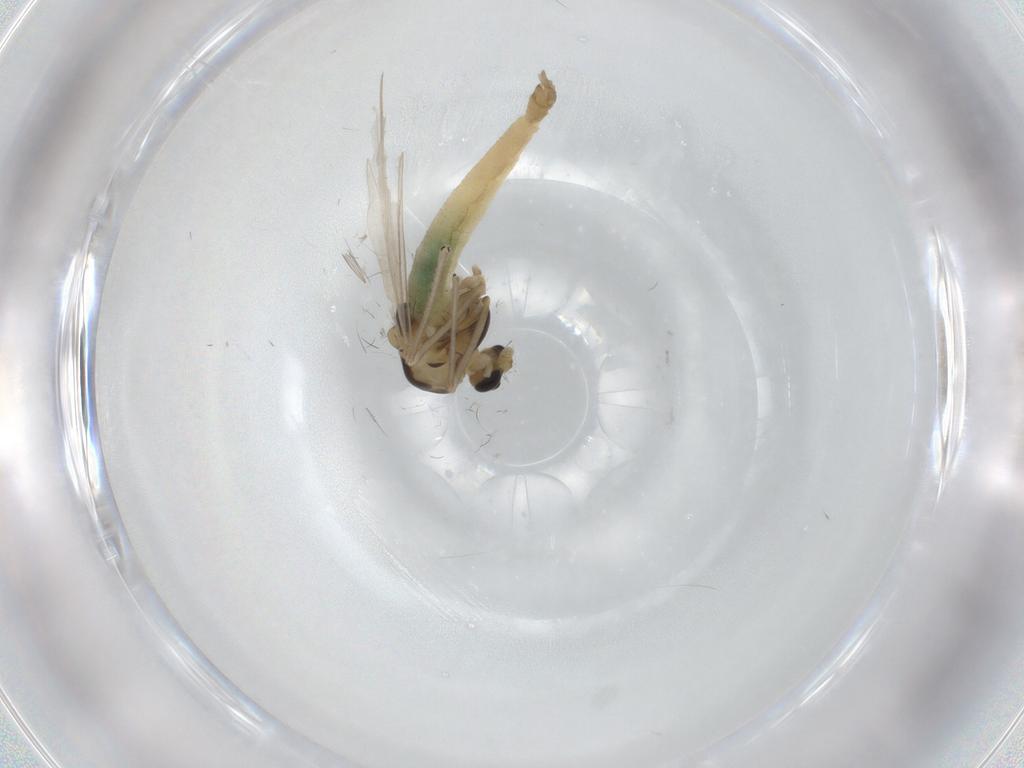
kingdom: Animalia
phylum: Arthropoda
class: Insecta
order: Diptera
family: Chironomidae
